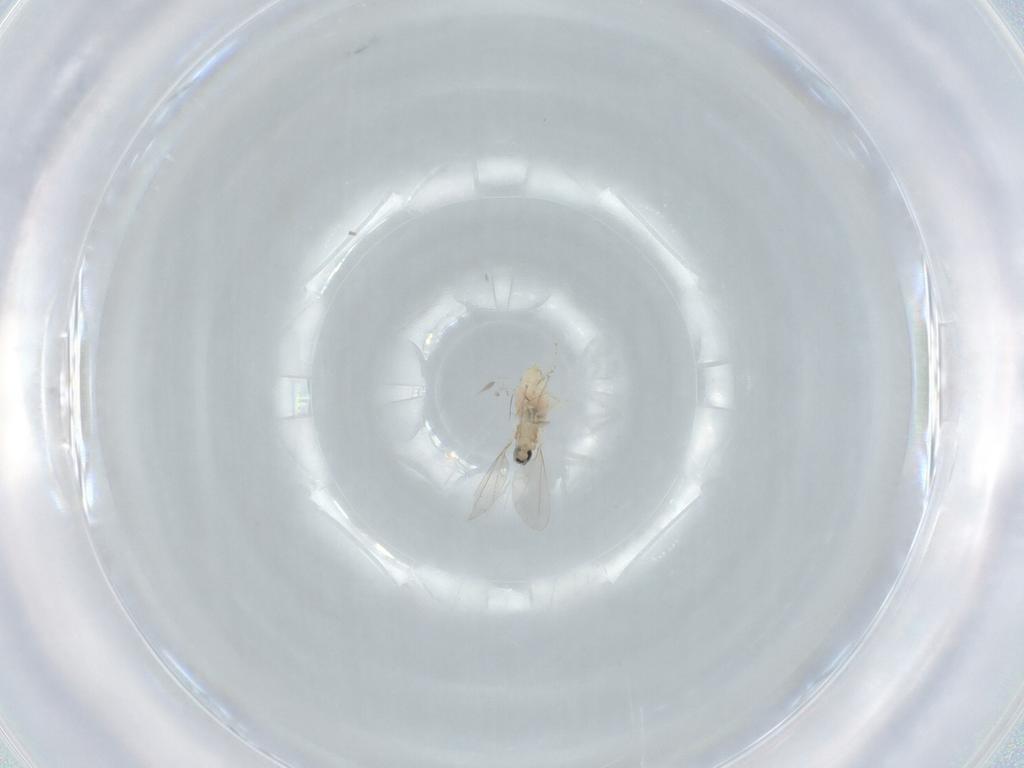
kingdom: Animalia
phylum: Arthropoda
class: Insecta
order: Diptera
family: Cecidomyiidae
